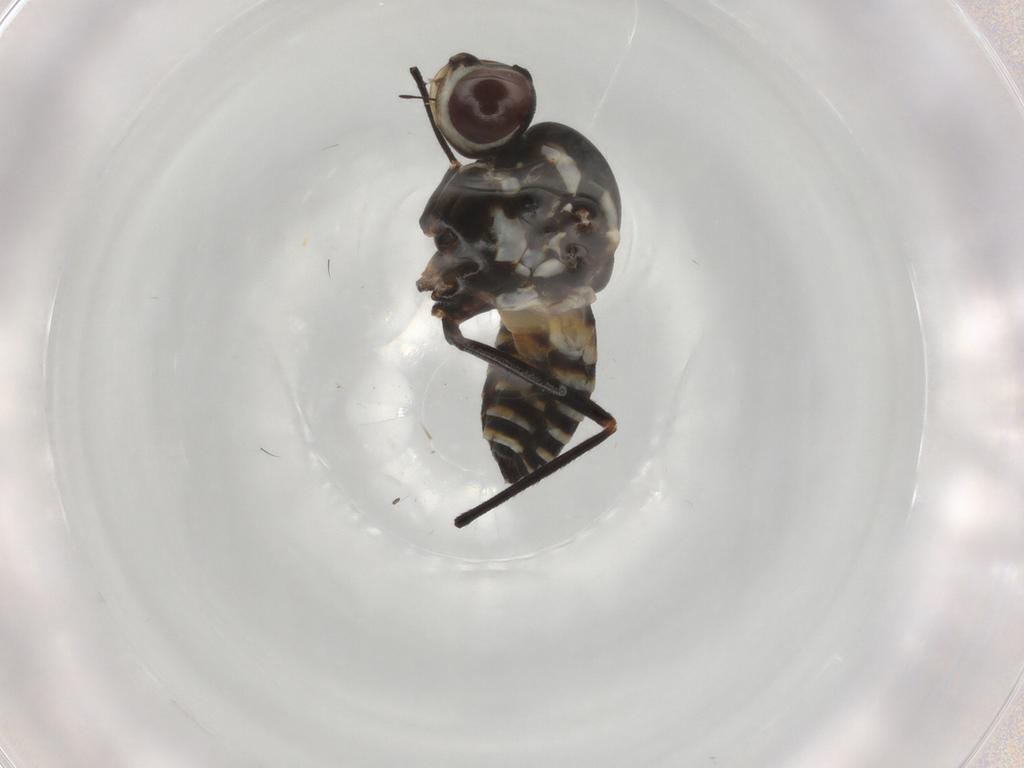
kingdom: Animalia
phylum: Arthropoda
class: Insecta
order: Diptera
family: Bombyliidae
